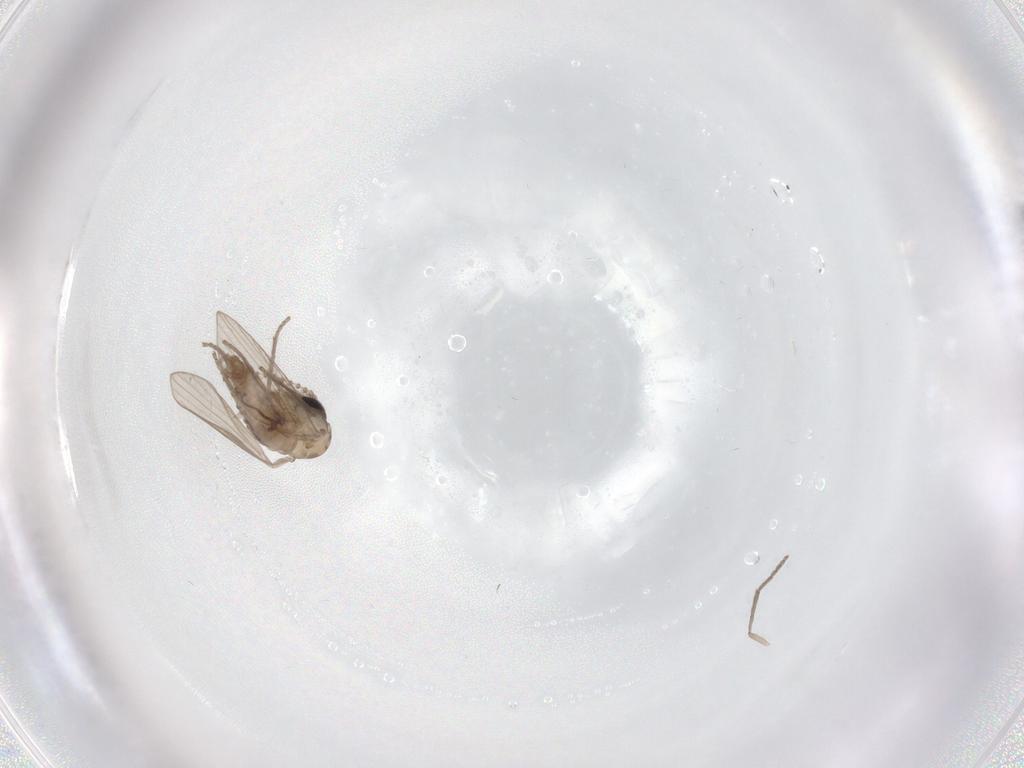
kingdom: Animalia
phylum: Arthropoda
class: Insecta
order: Diptera
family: Psychodidae
